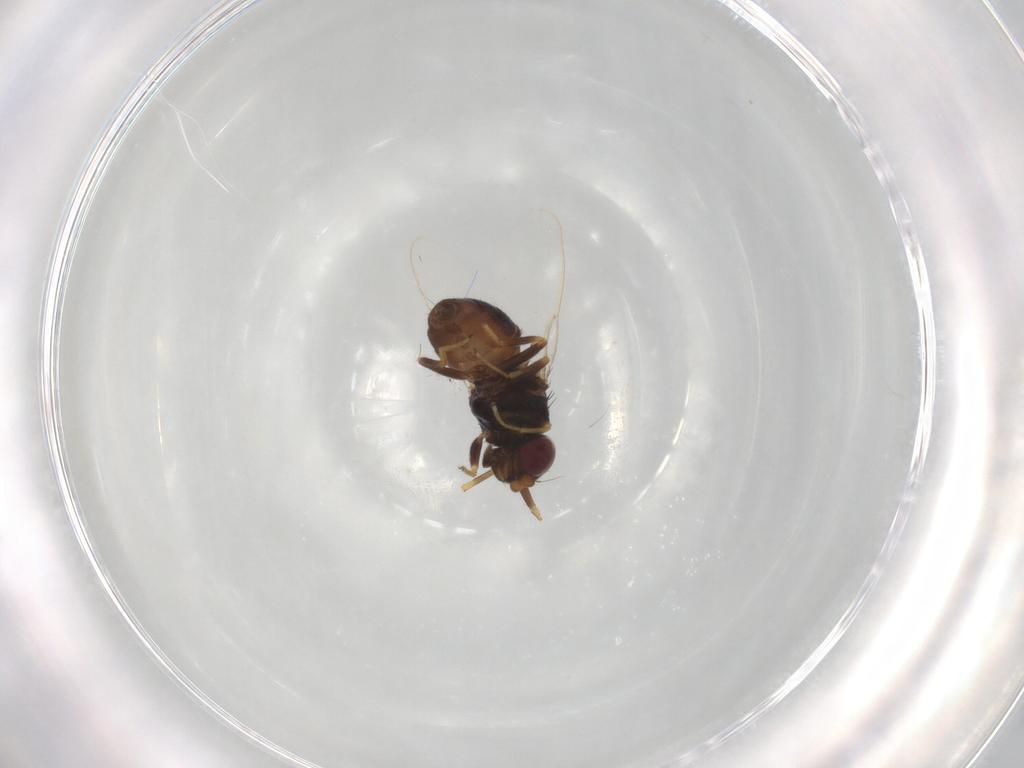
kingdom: Animalia
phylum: Arthropoda
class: Insecta
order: Diptera
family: Chloropidae
